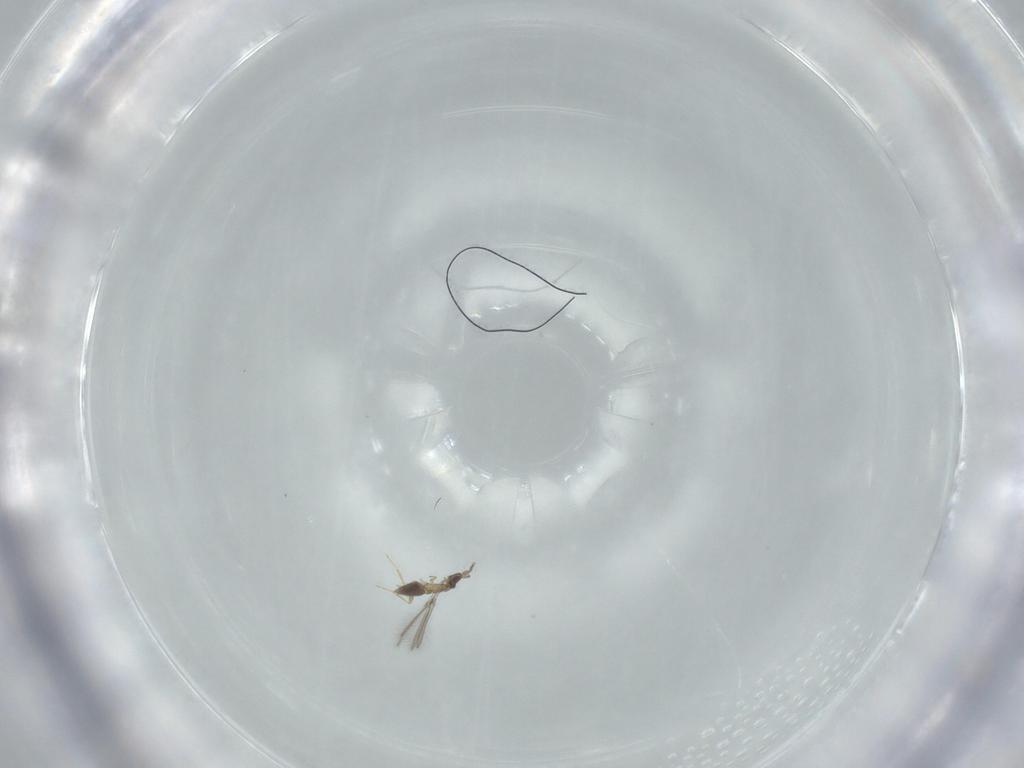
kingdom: Animalia
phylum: Arthropoda
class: Insecta
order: Hymenoptera
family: Mymaridae
